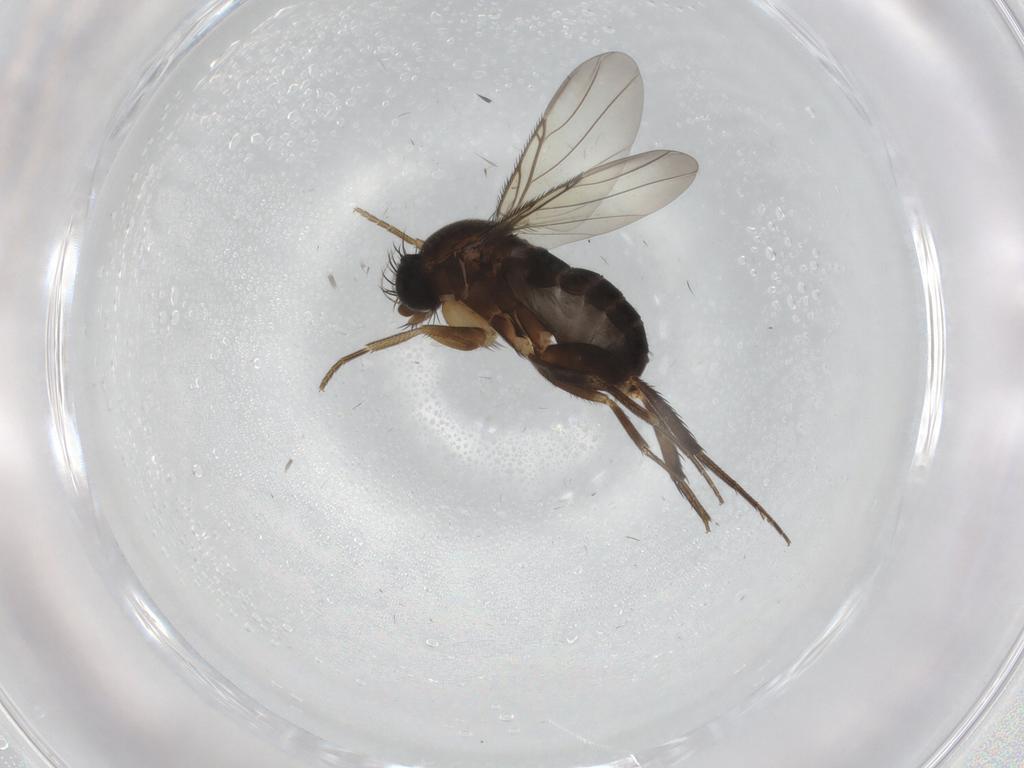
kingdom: Animalia
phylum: Arthropoda
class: Insecta
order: Diptera
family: Phoridae
